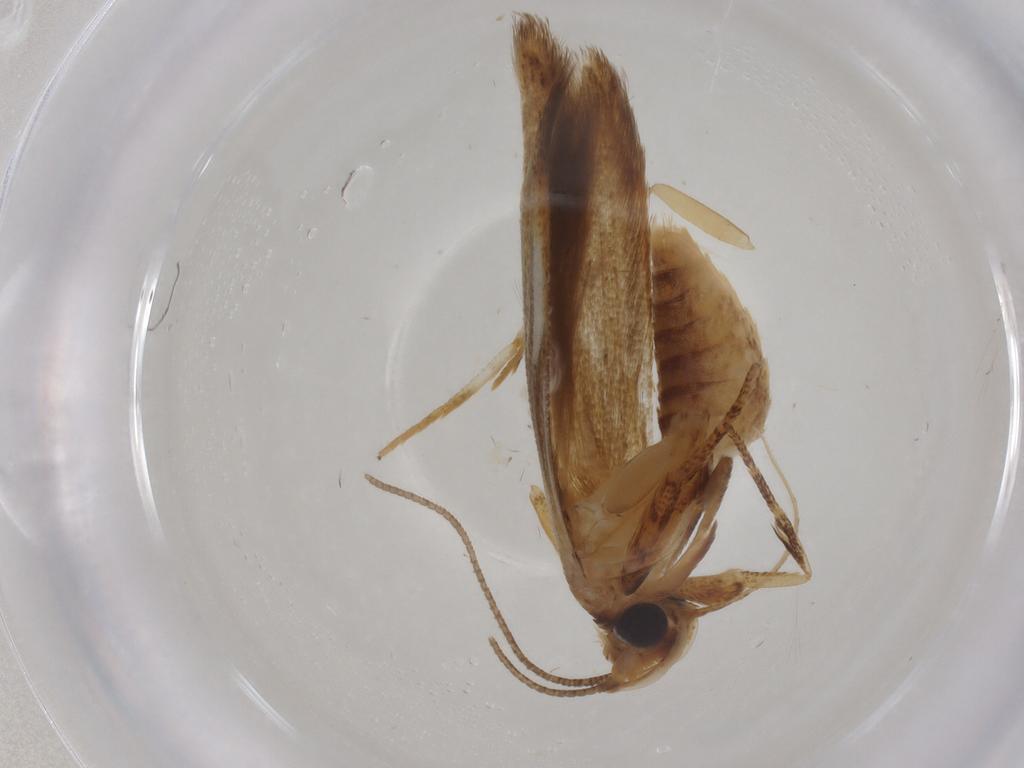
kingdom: Animalia
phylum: Arthropoda
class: Insecta
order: Lepidoptera
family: Blastobasidae
